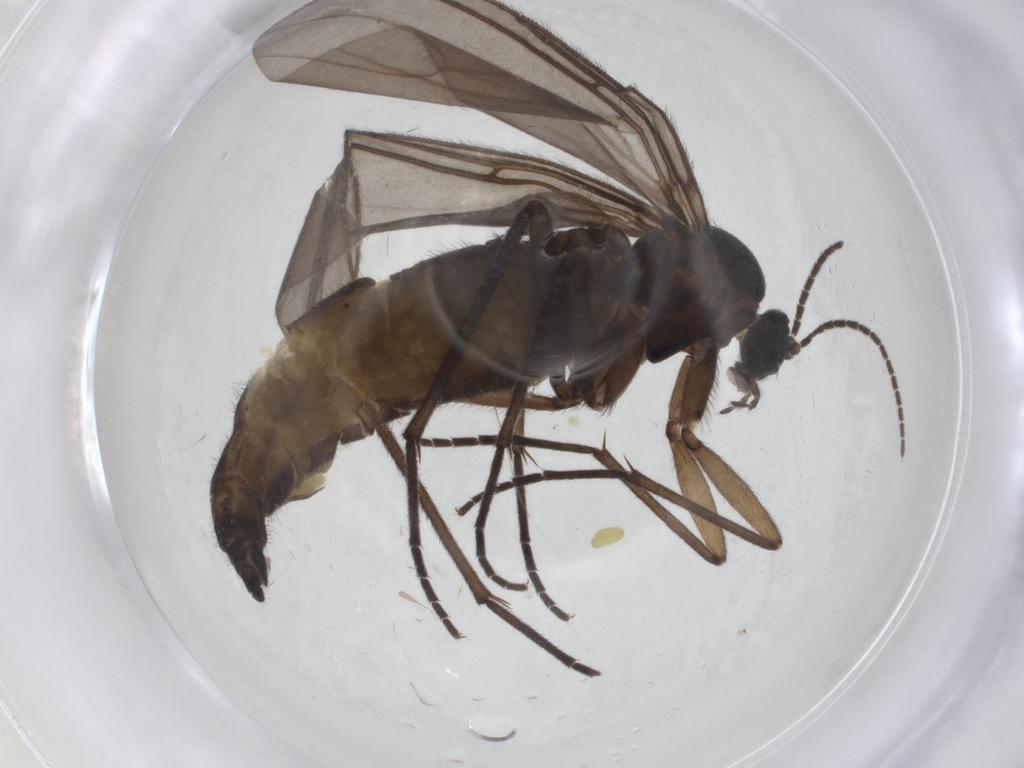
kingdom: Animalia
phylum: Arthropoda
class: Insecta
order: Diptera
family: Sciaridae
